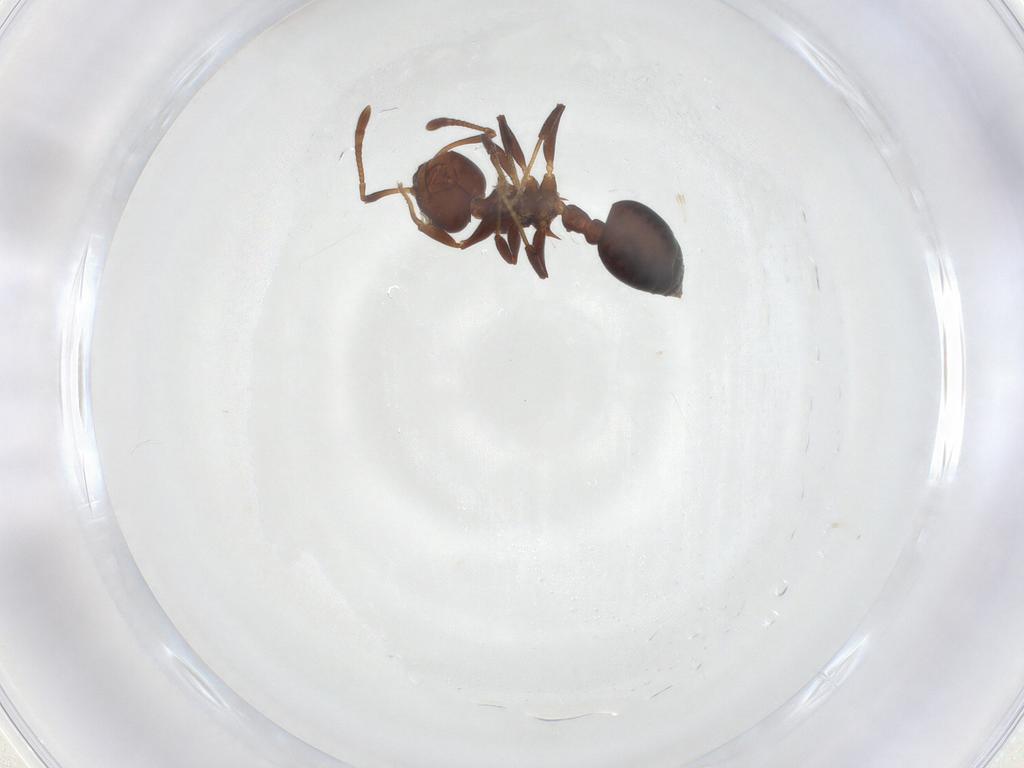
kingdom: Animalia
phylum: Arthropoda
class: Insecta
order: Hymenoptera
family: Formicidae
